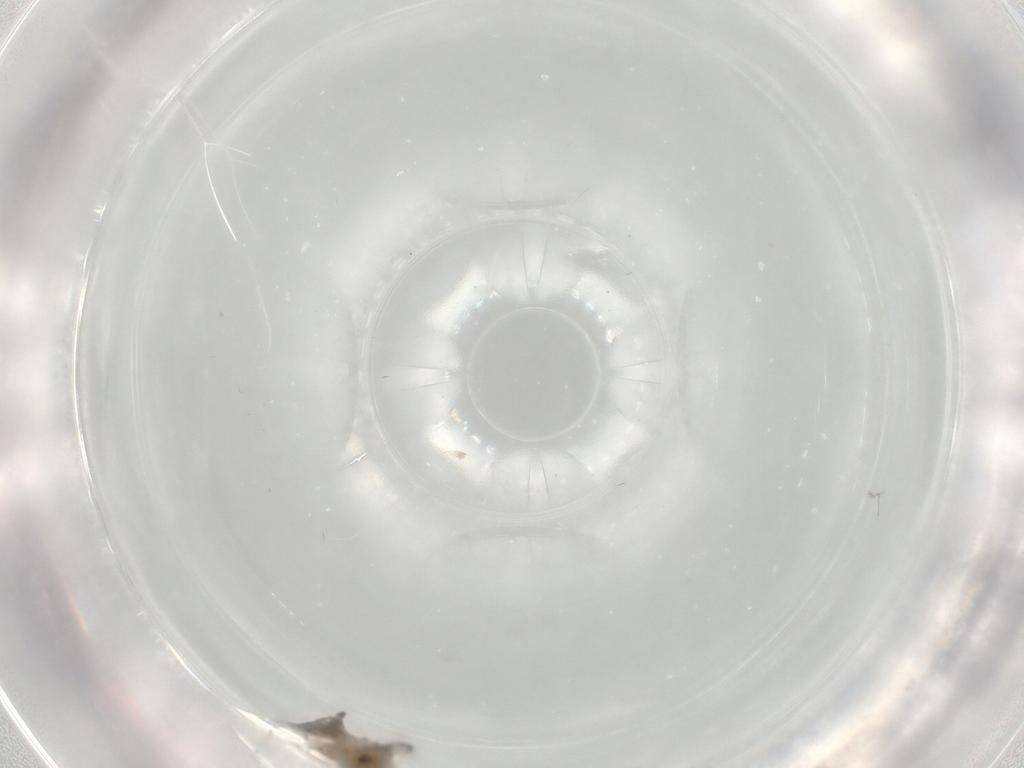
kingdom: Animalia
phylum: Arthropoda
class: Insecta
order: Diptera
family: Chironomidae
